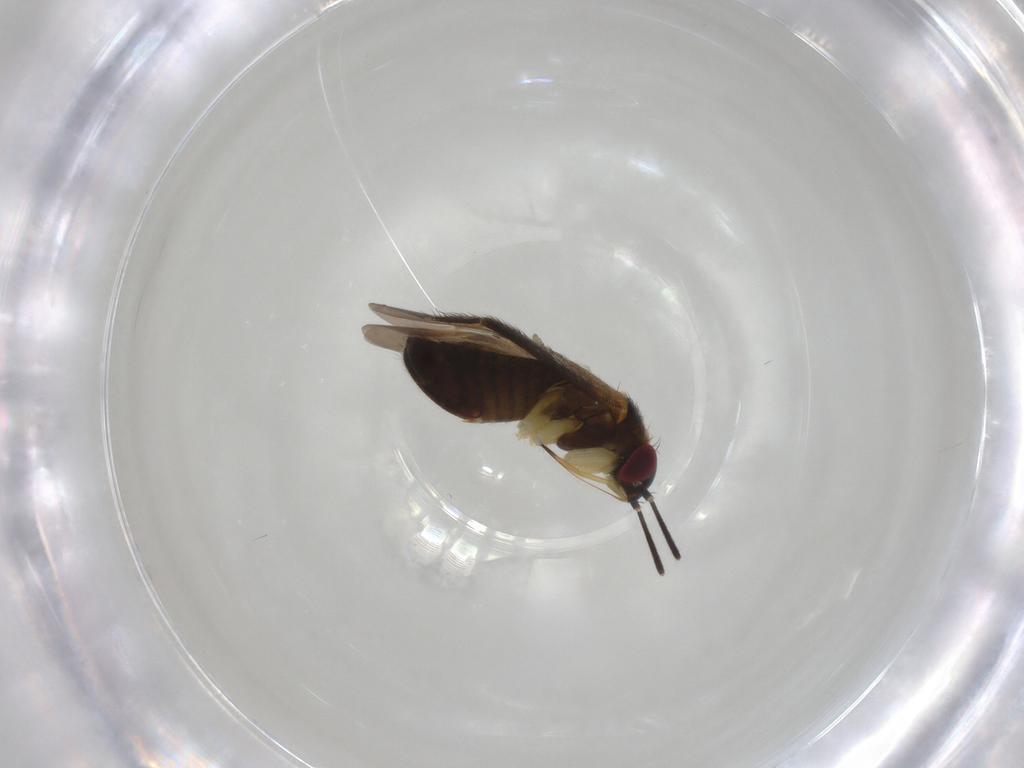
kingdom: Animalia
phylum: Arthropoda
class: Insecta
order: Hemiptera
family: Miridae
